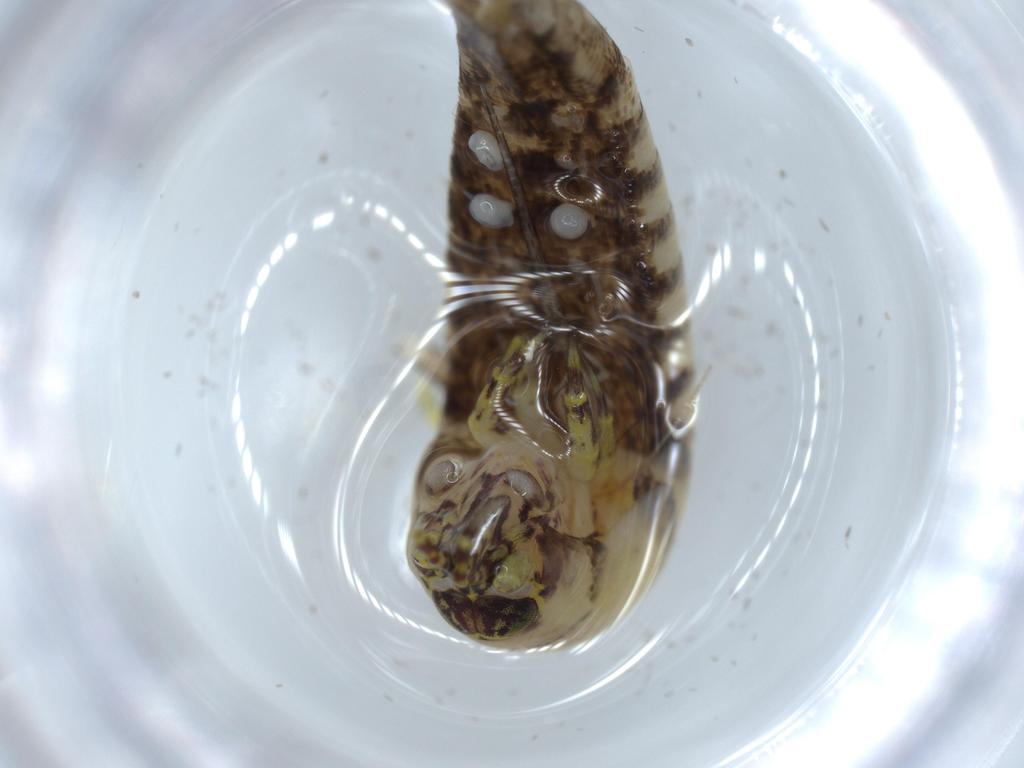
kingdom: Animalia
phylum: Arthropoda
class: Insecta
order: Archaeognatha
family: Machilidae
